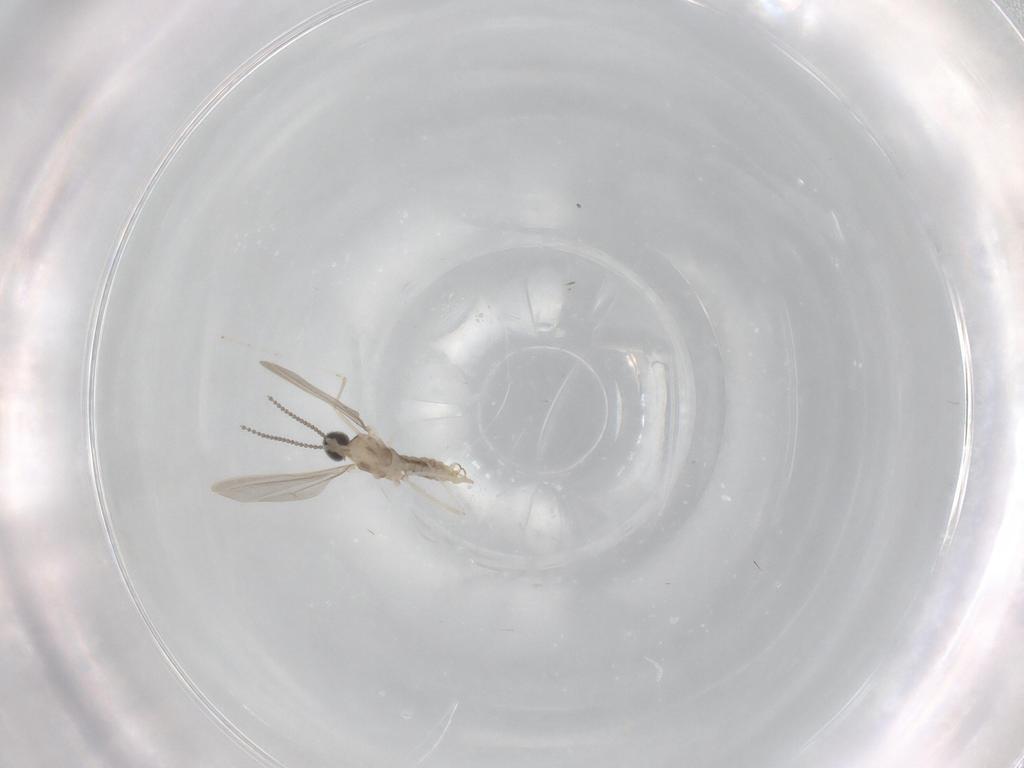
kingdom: Animalia
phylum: Arthropoda
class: Insecta
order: Diptera
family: Cecidomyiidae
